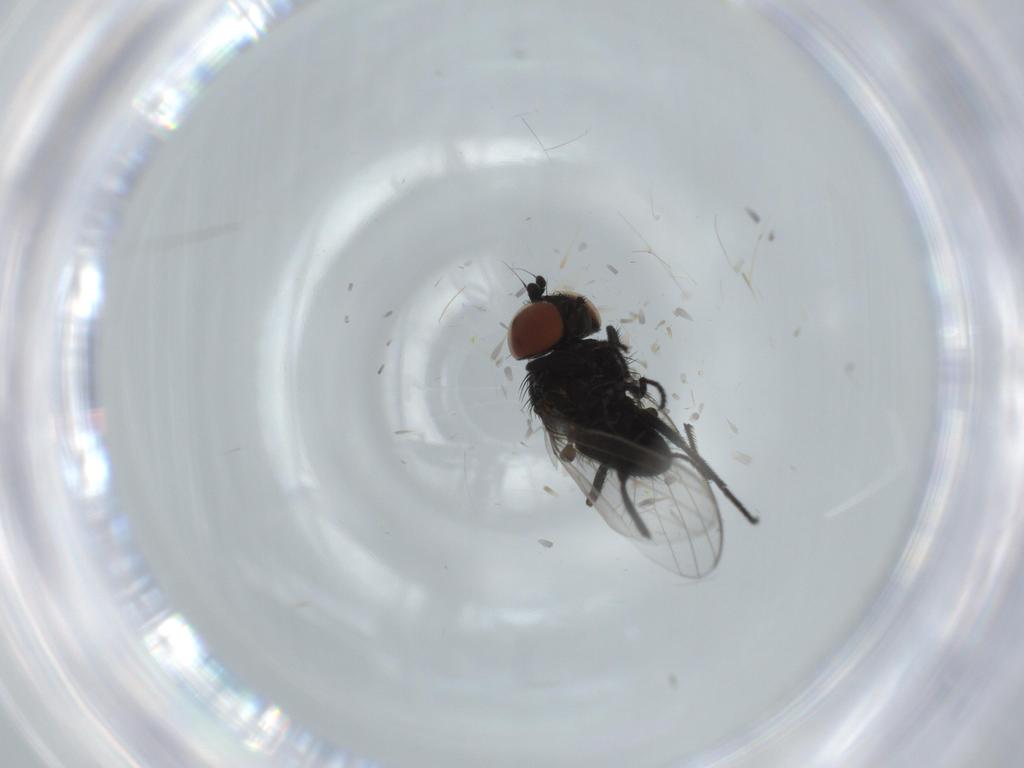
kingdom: Animalia
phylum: Arthropoda
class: Insecta
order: Diptera
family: Milichiidae
